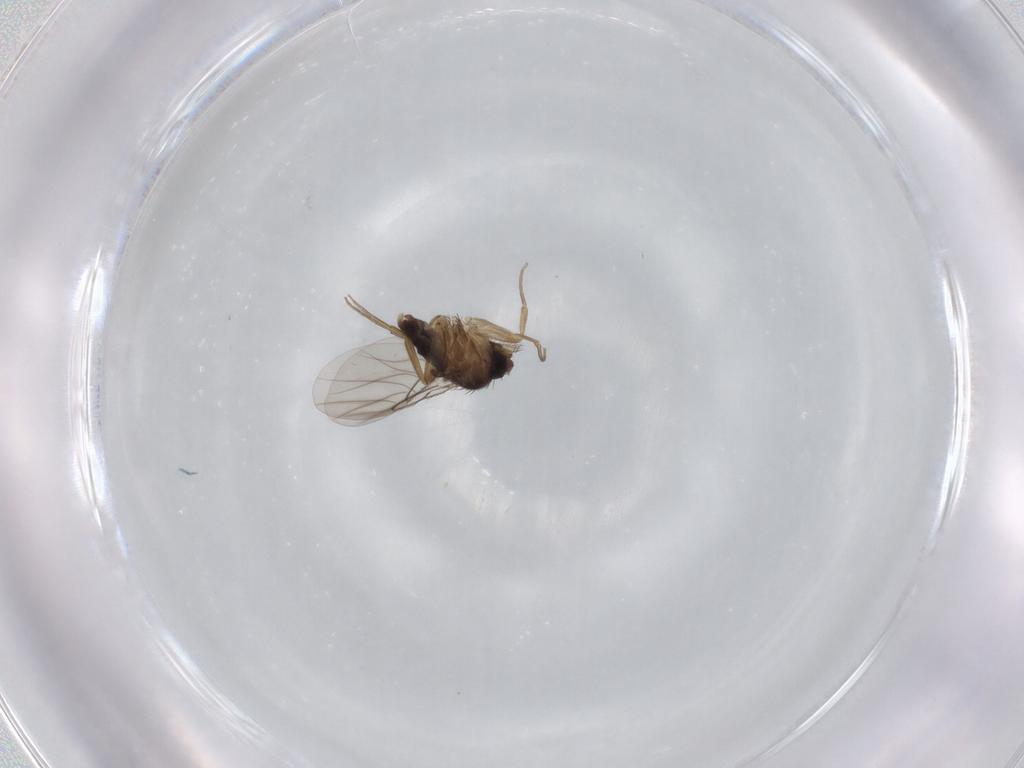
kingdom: Animalia
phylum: Arthropoda
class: Insecta
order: Diptera
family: Phoridae
